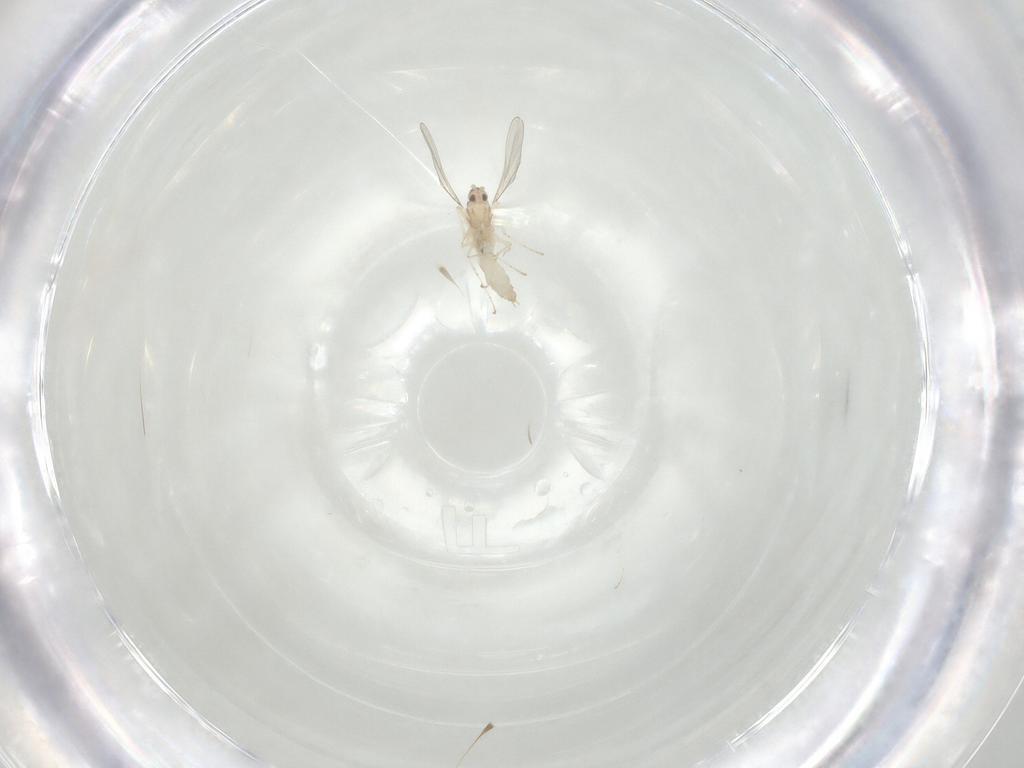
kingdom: Animalia
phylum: Arthropoda
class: Insecta
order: Diptera
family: Cecidomyiidae
